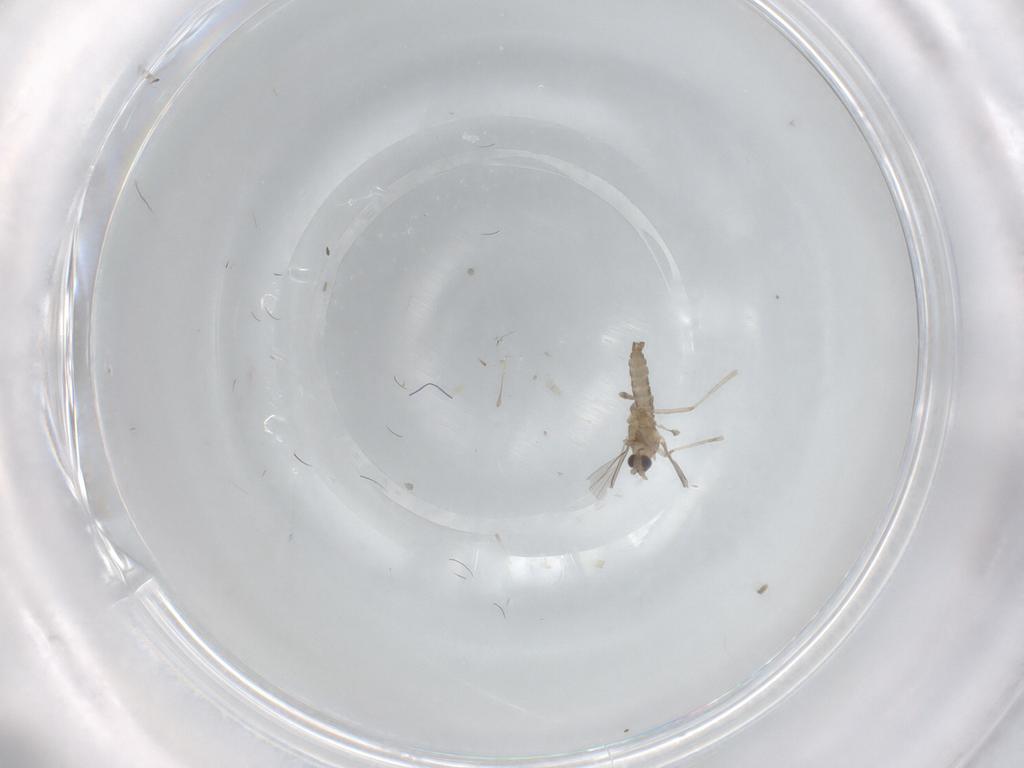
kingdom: Animalia
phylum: Arthropoda
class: Insecta
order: Diptera
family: Tachinidae
